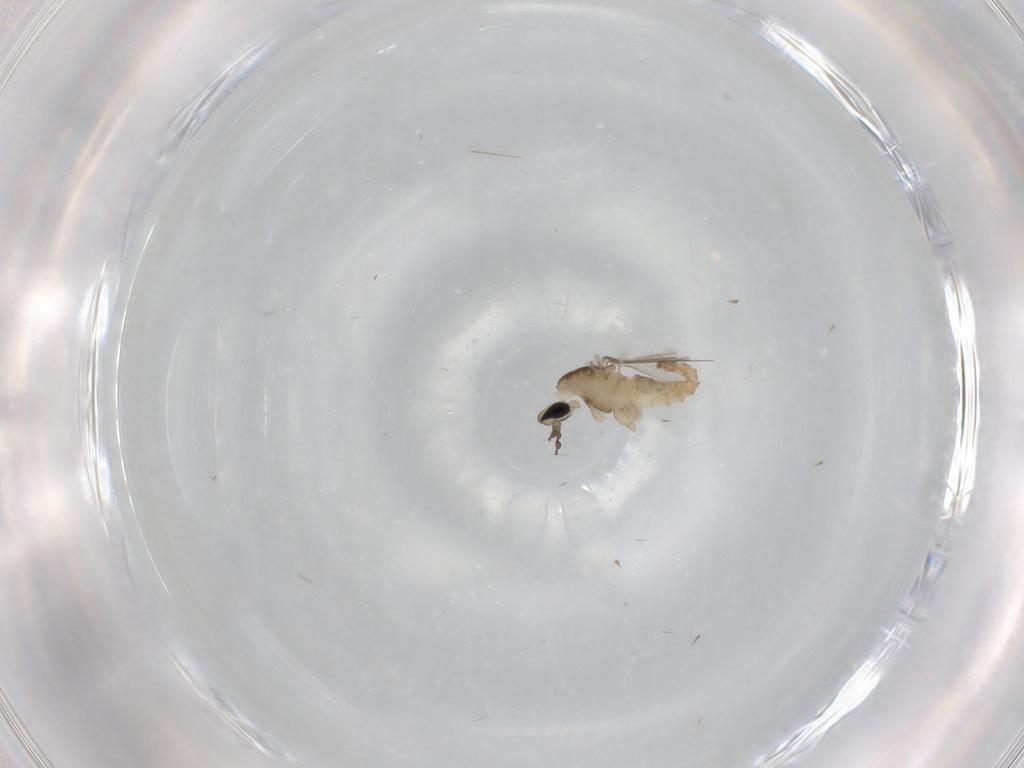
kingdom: Animalia
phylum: Arthropoda
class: Insecta
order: Diptera
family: Cecidomyiidae
